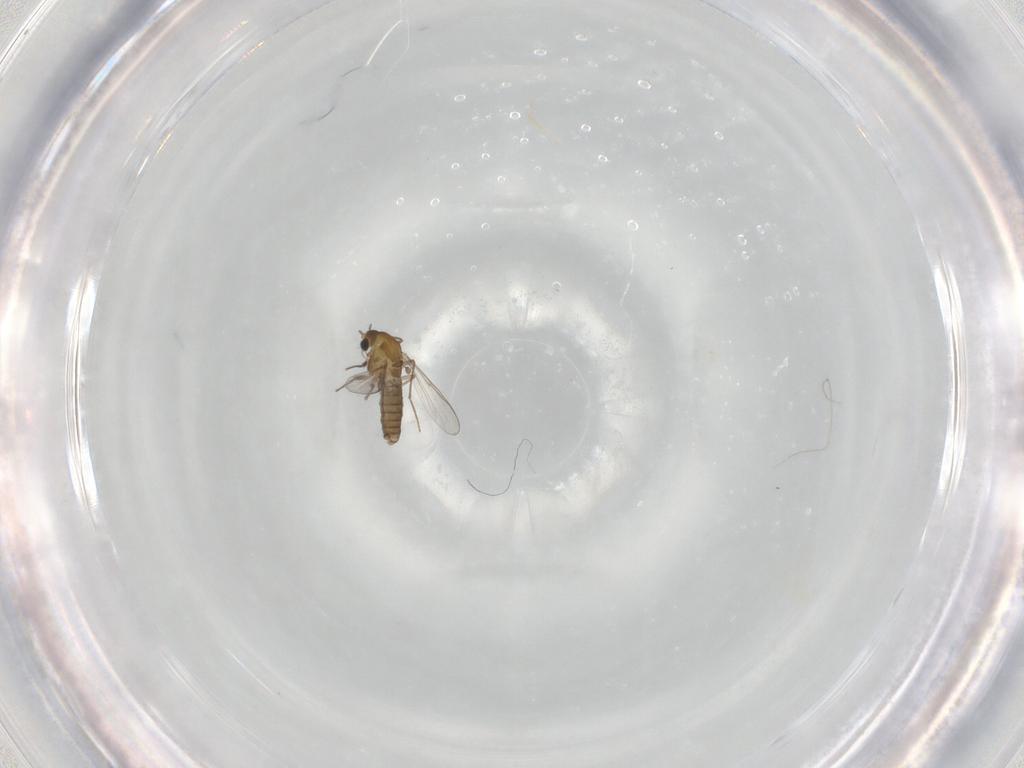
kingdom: Animalia
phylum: Arthropoda
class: Insecta
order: Diptera
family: Chironomidae
